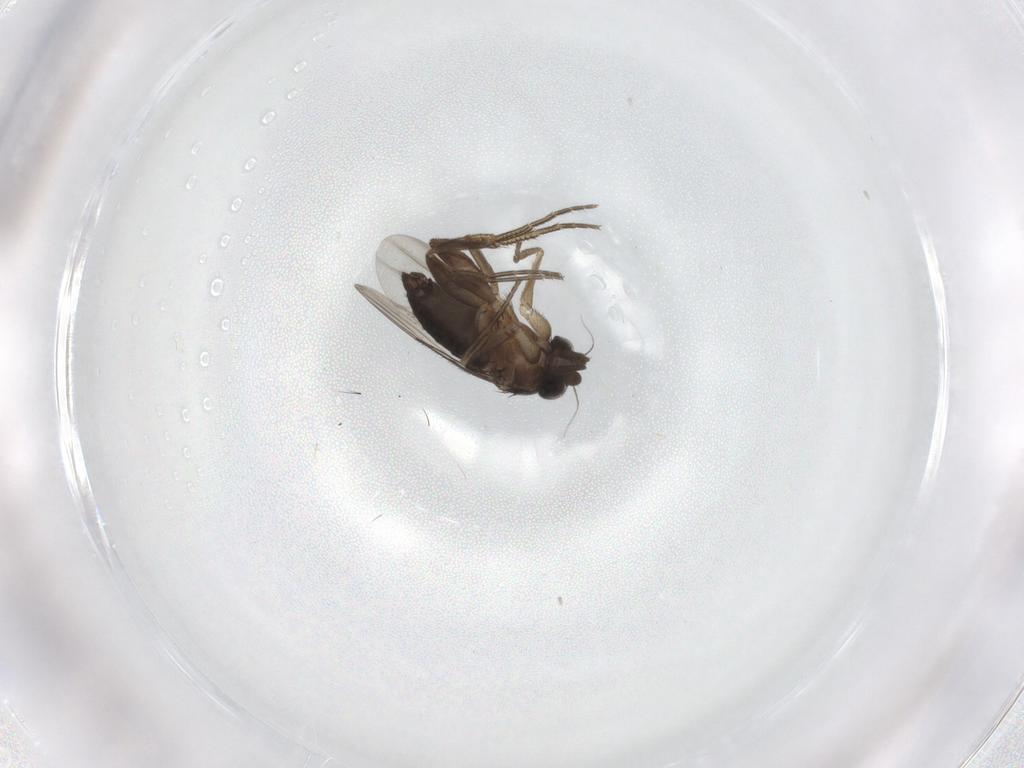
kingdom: Animalia
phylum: Arthropoda
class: Insecta
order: Diptera
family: Phoridae
